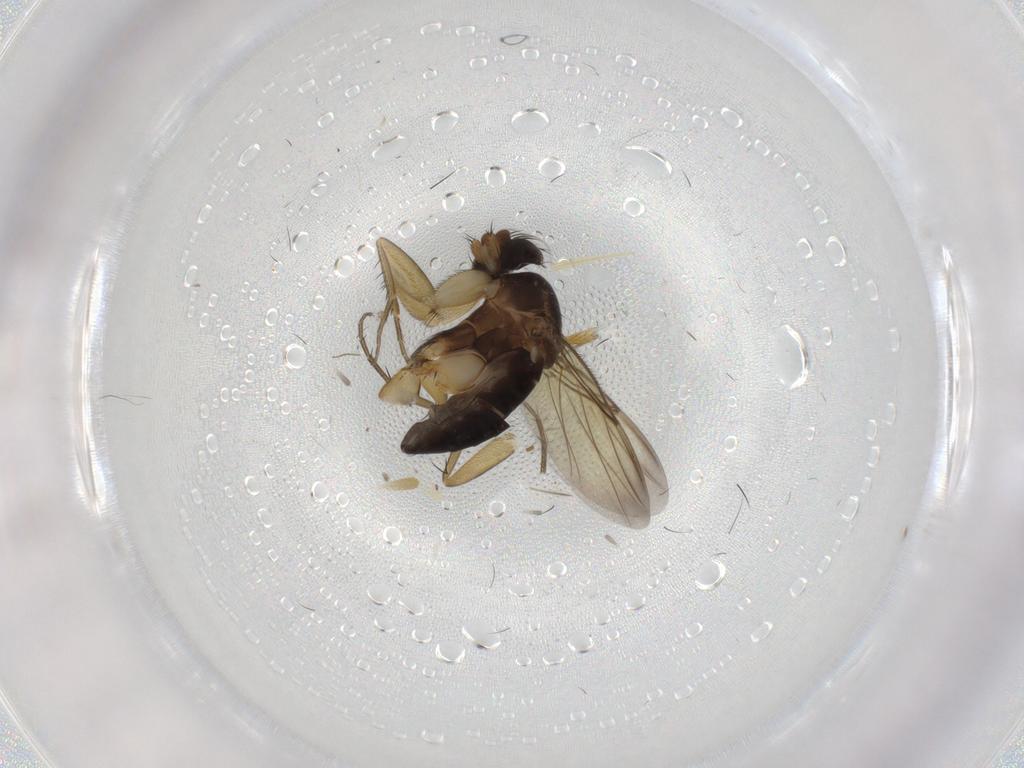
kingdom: Animalia
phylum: Arthropoda
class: Insecta
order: Diptera
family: Phoridae
